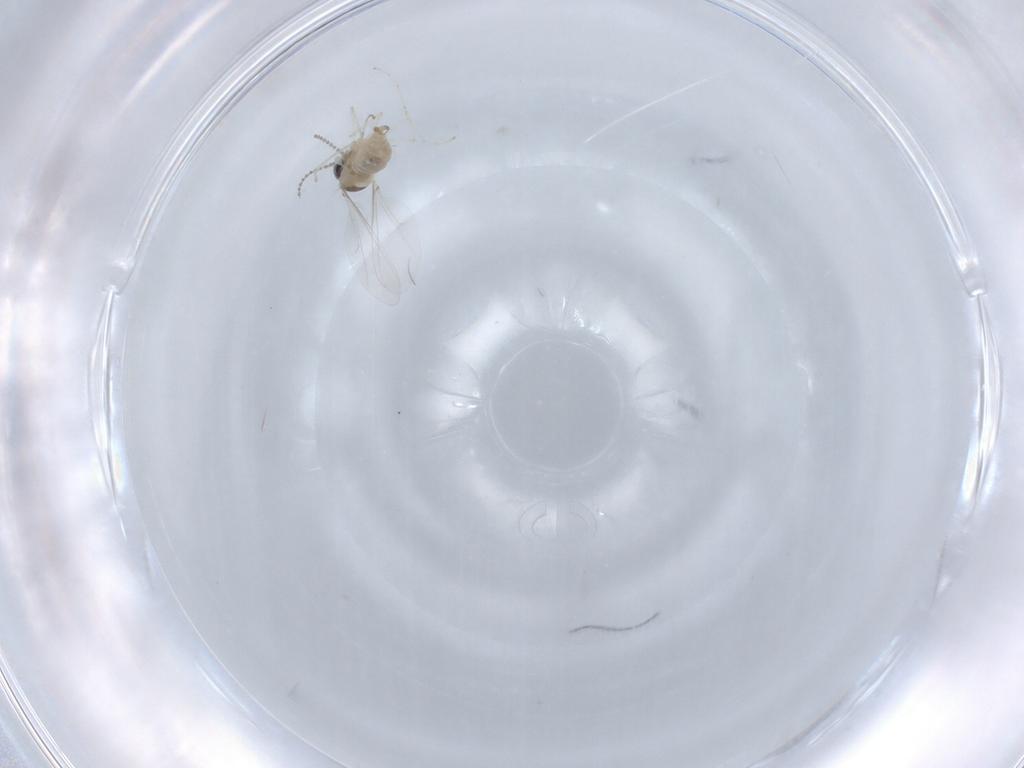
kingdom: Animalia
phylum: Arthropoda
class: Insecta
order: Diptera
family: Cecidomyiidae
